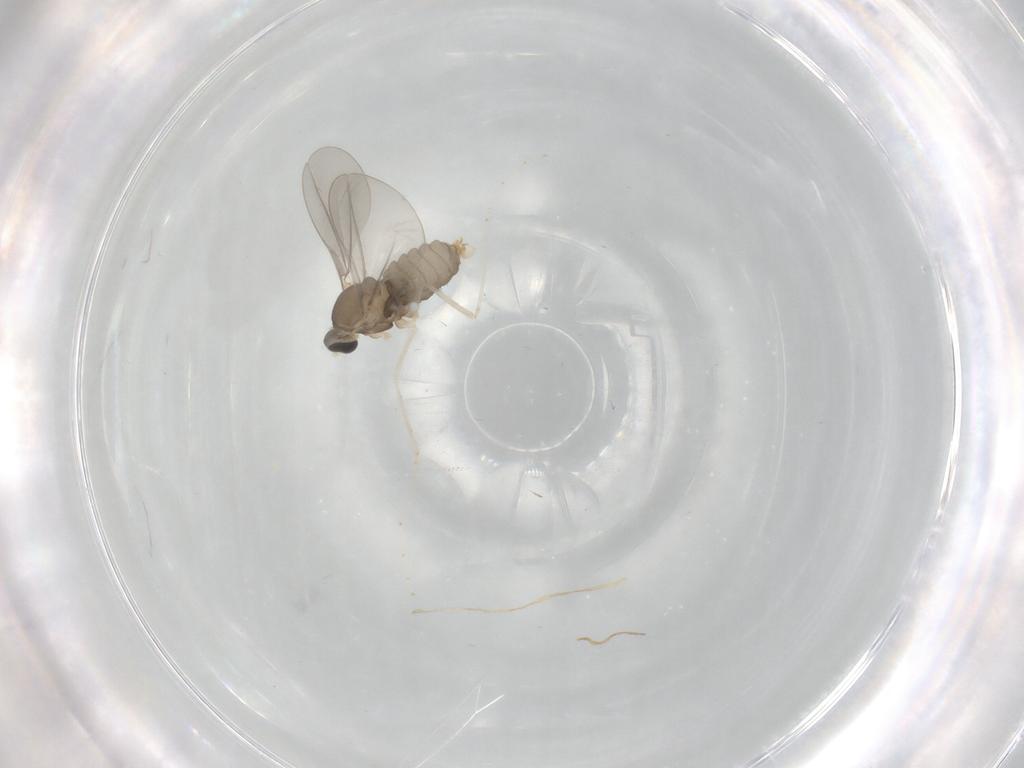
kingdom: Animalia
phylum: Arthropoda
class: Insecta
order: Diptera
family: Cecidomyiidae
